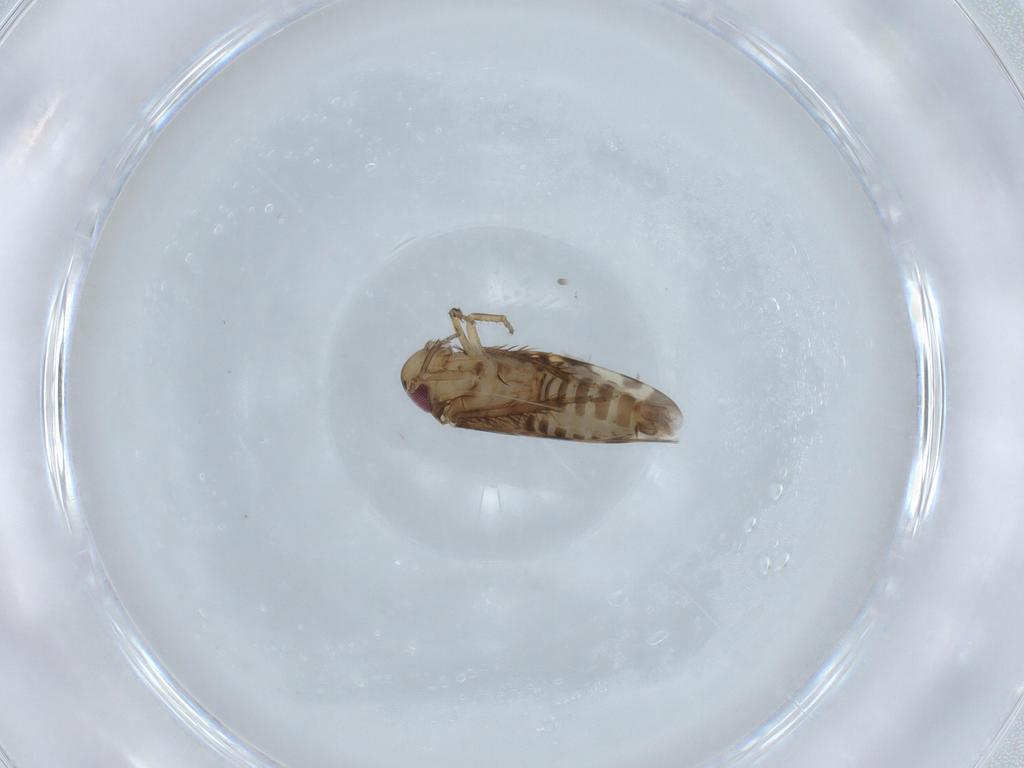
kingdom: Animalia
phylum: Arthropoda
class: Insecta
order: Hemiptera
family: Cicadellidae
